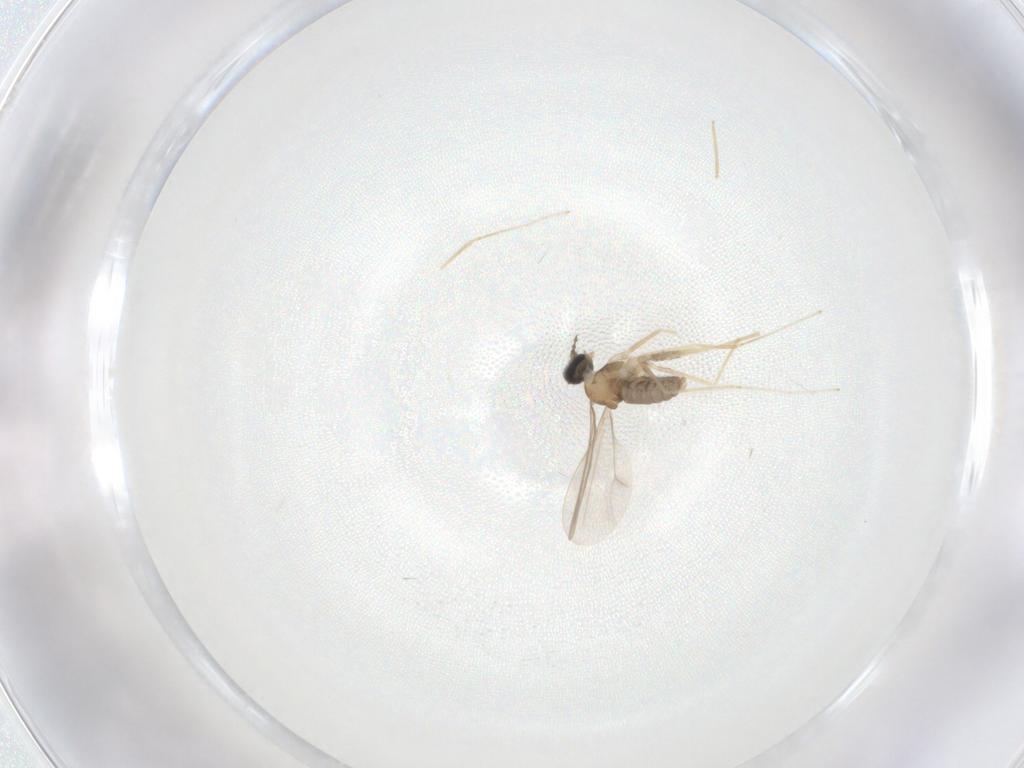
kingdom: Animalia
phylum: Arthropoda
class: Insecta
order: Diptera
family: Cecidomyiidae
